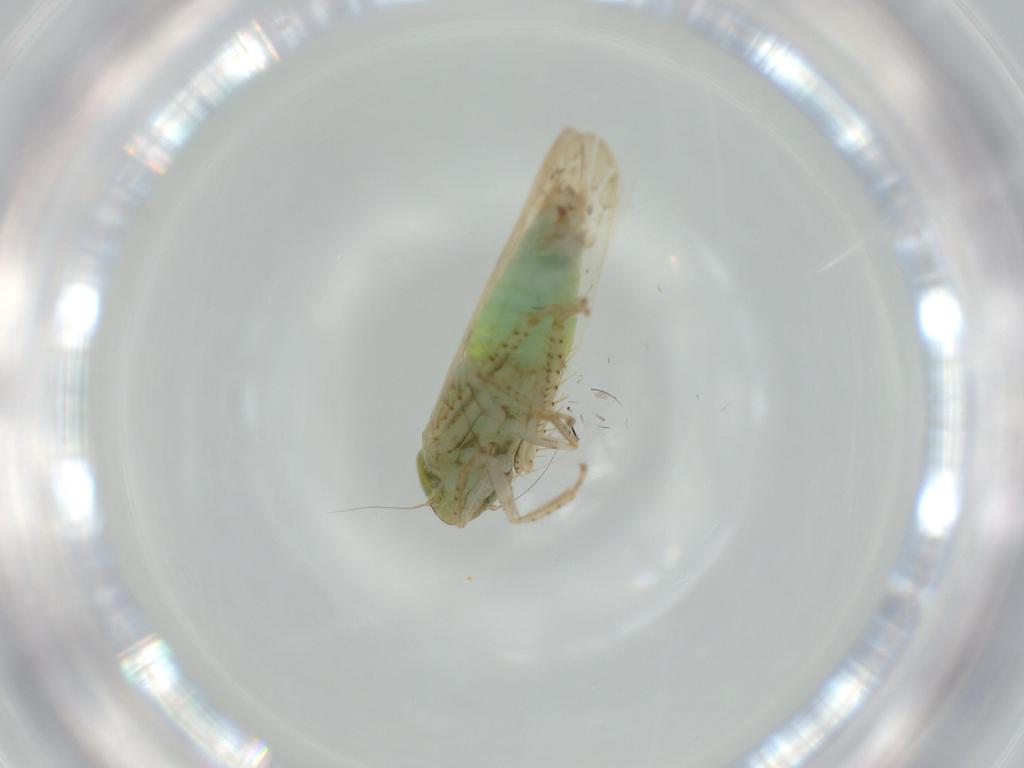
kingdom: Animalia
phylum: Arthropoda
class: Insecta
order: Hemiptera
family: Cicadellidae
